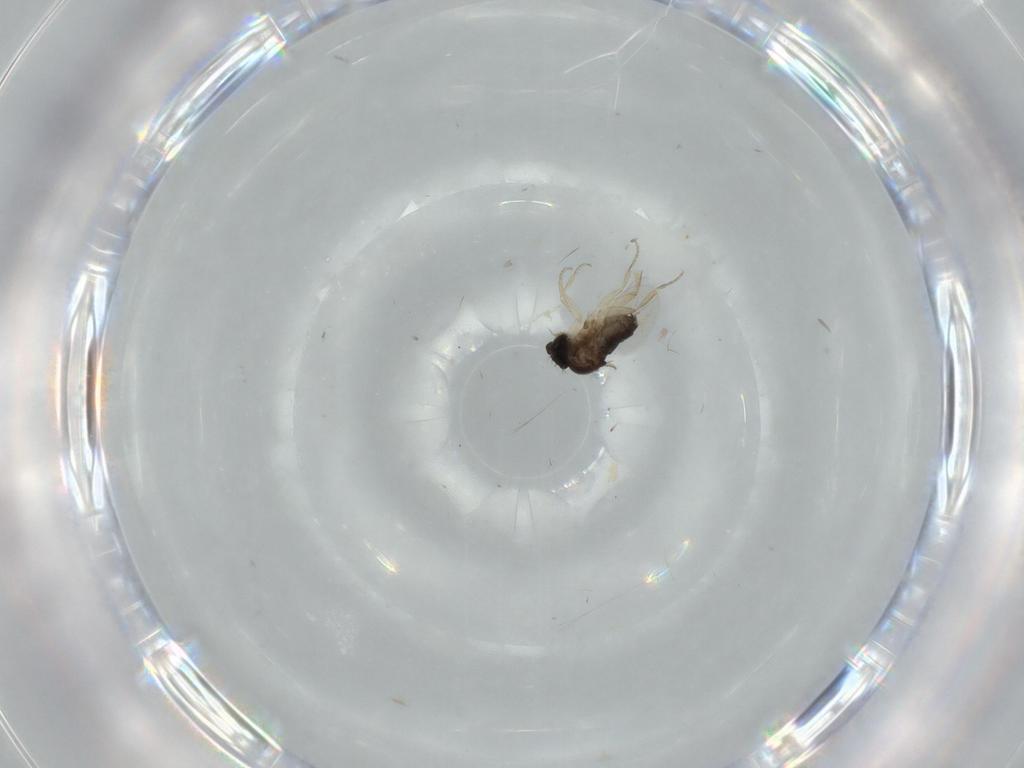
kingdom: Animalia
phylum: Arthropoda
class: Insecta
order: Diptera
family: Phoridae
